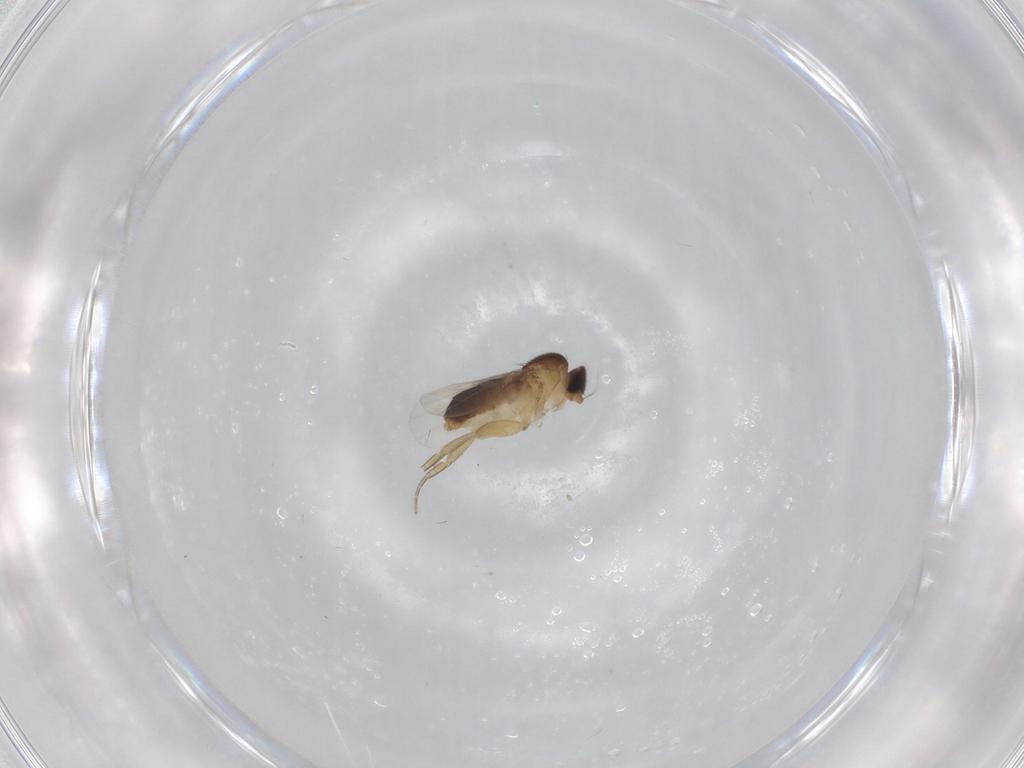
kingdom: Animalia
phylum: Arthropoda
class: Insecta
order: Diptera
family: Phoridae
